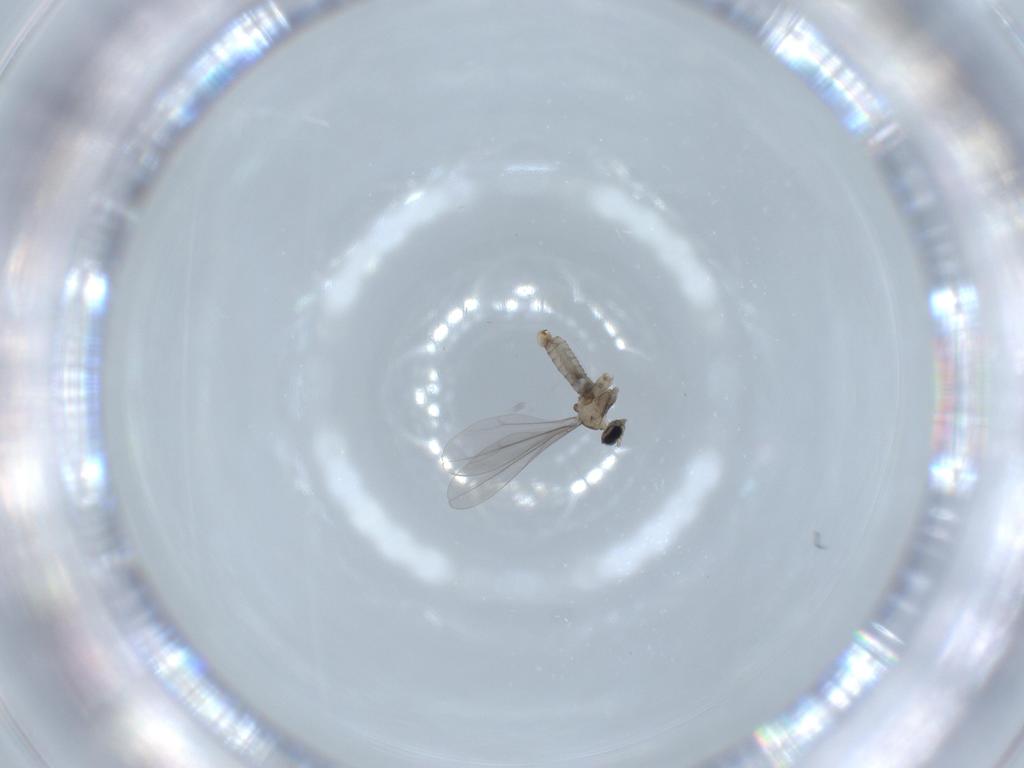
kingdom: Animalia
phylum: Arthropoda
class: Insecta
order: Diptera
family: Cecidomyiidae
